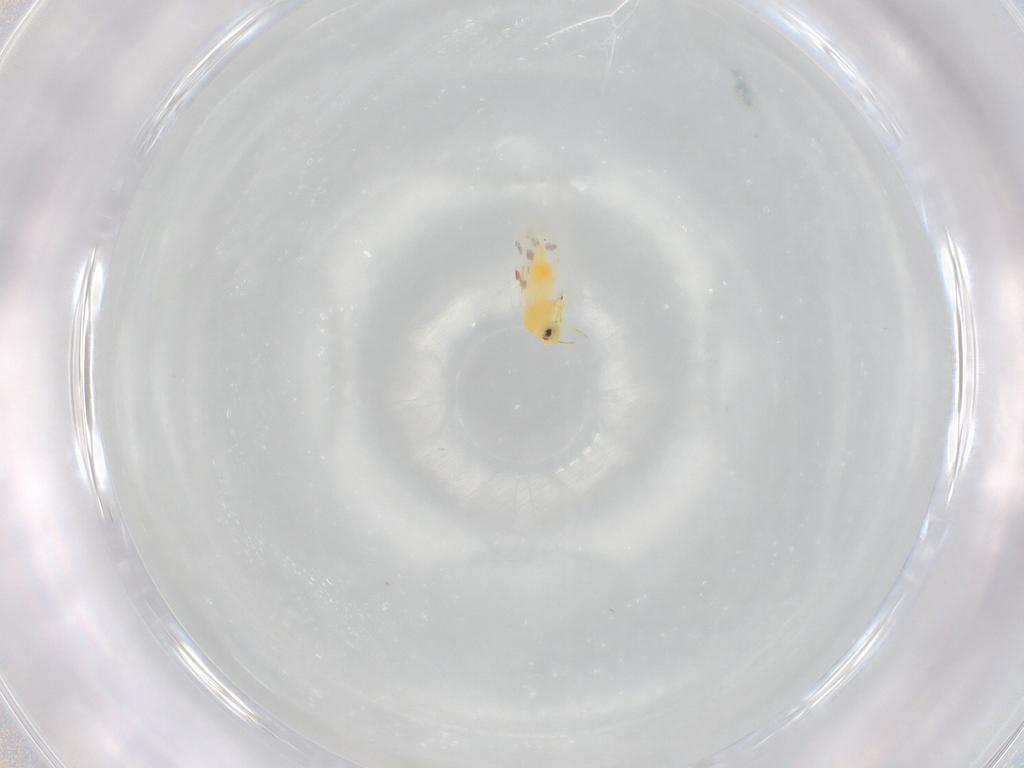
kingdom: Animalia
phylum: Arthropoda
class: Insecta
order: Hemiptera
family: Aleyrodidae
